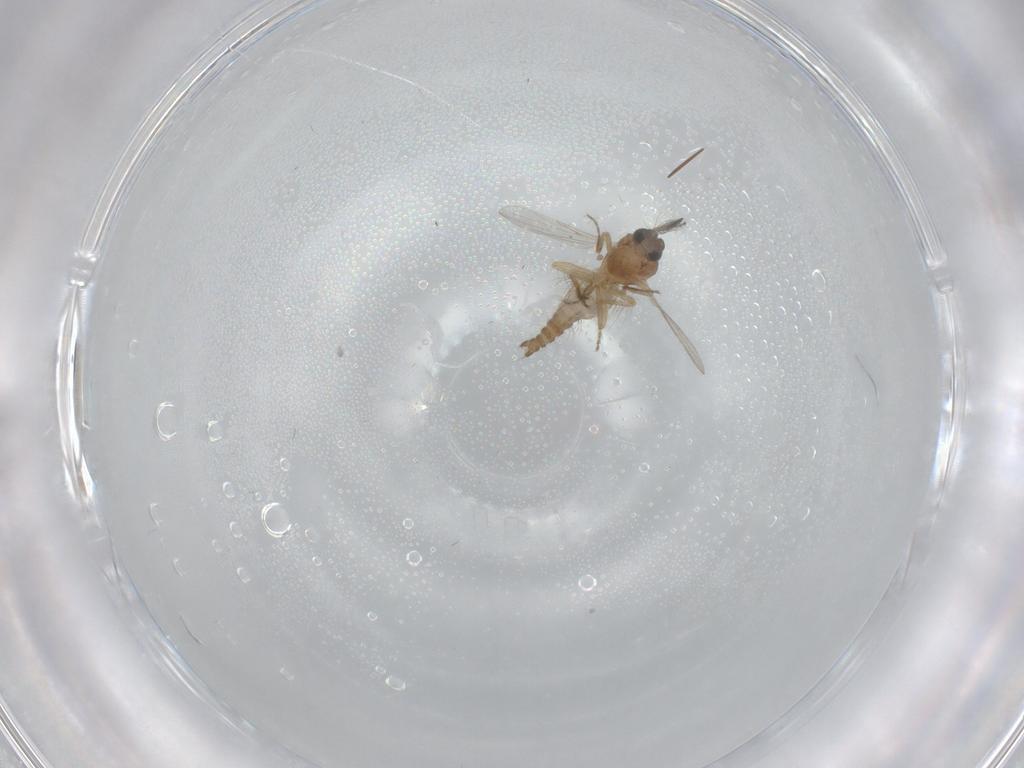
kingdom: Animalia
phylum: Arthropoda
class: Insecta
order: Diptera
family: Ceratopogonidae
